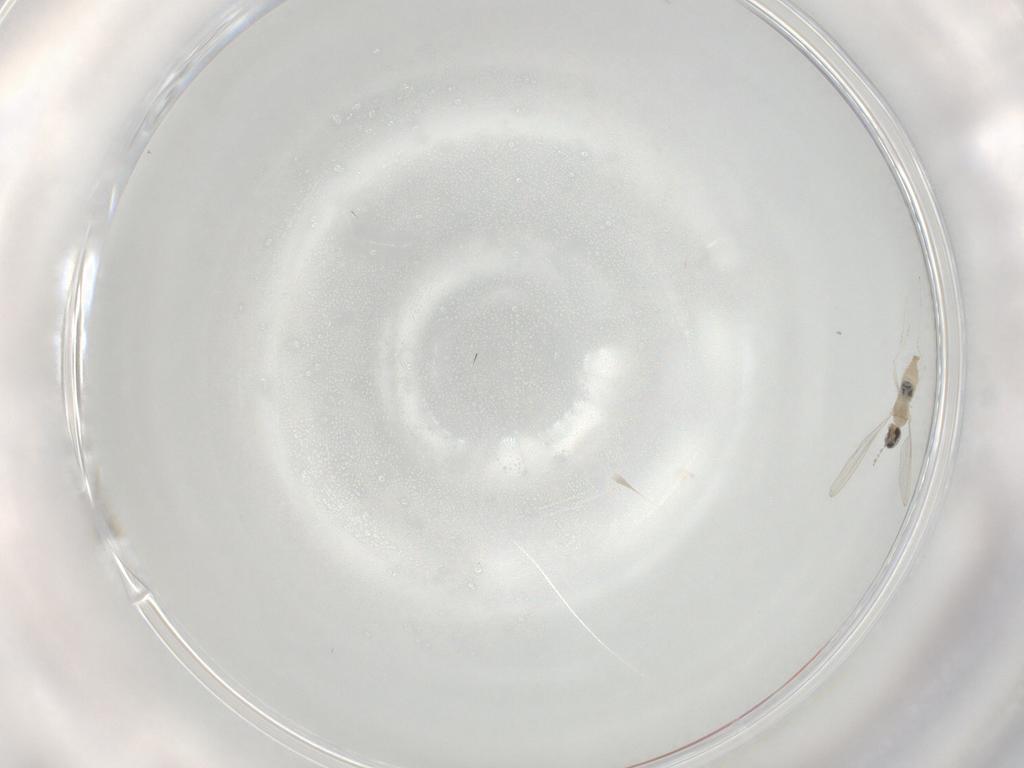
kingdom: Animalia
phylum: Arthropoda
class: Insecta
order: Diptera
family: Cecidomyiidae
